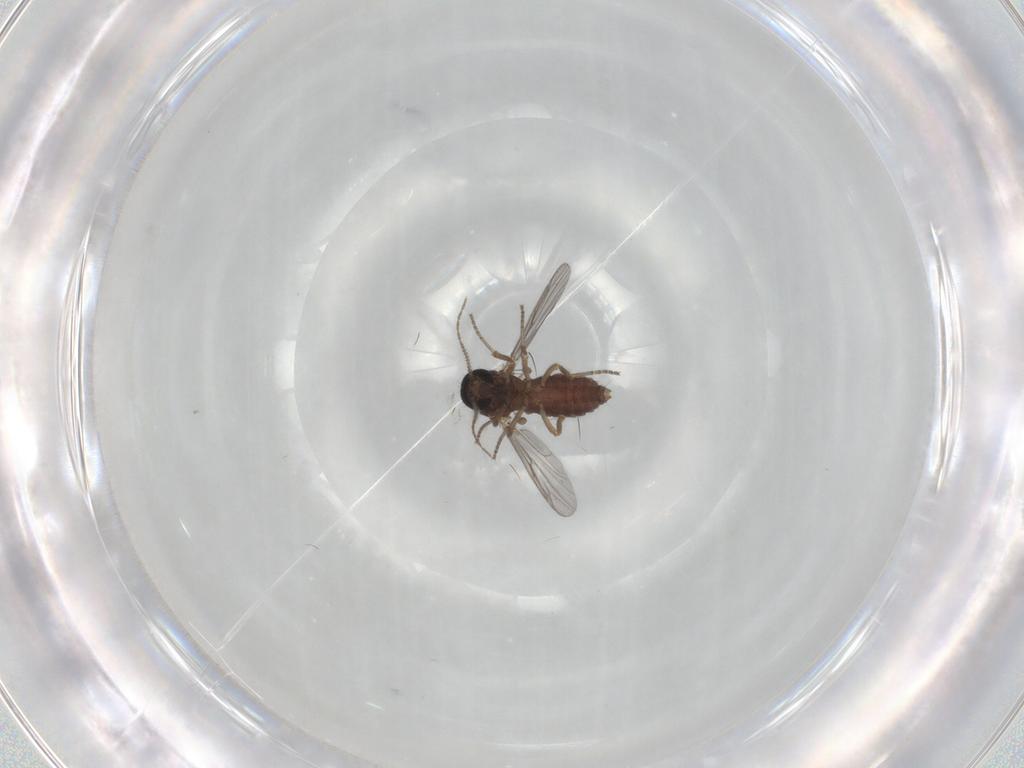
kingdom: Animalia
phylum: Arthropoda
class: Insecta
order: Diptera
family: Ceratopogonidae
